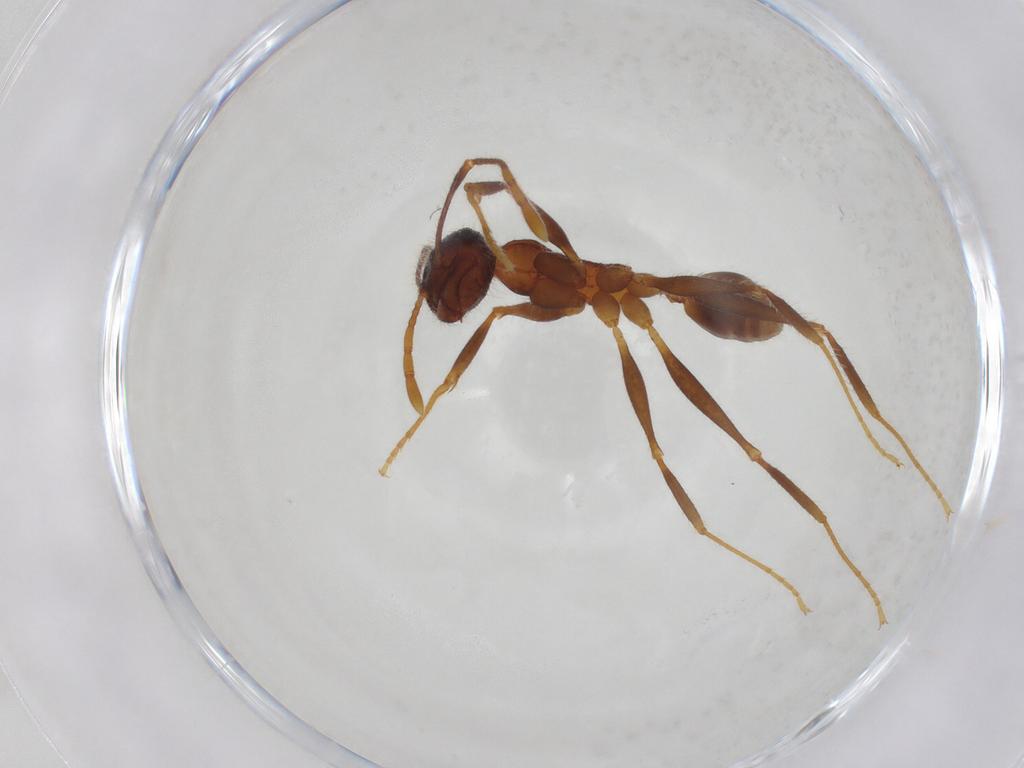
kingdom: Animalia
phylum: Arthropoda
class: Insecta
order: Hymenoptera
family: Formicidae
